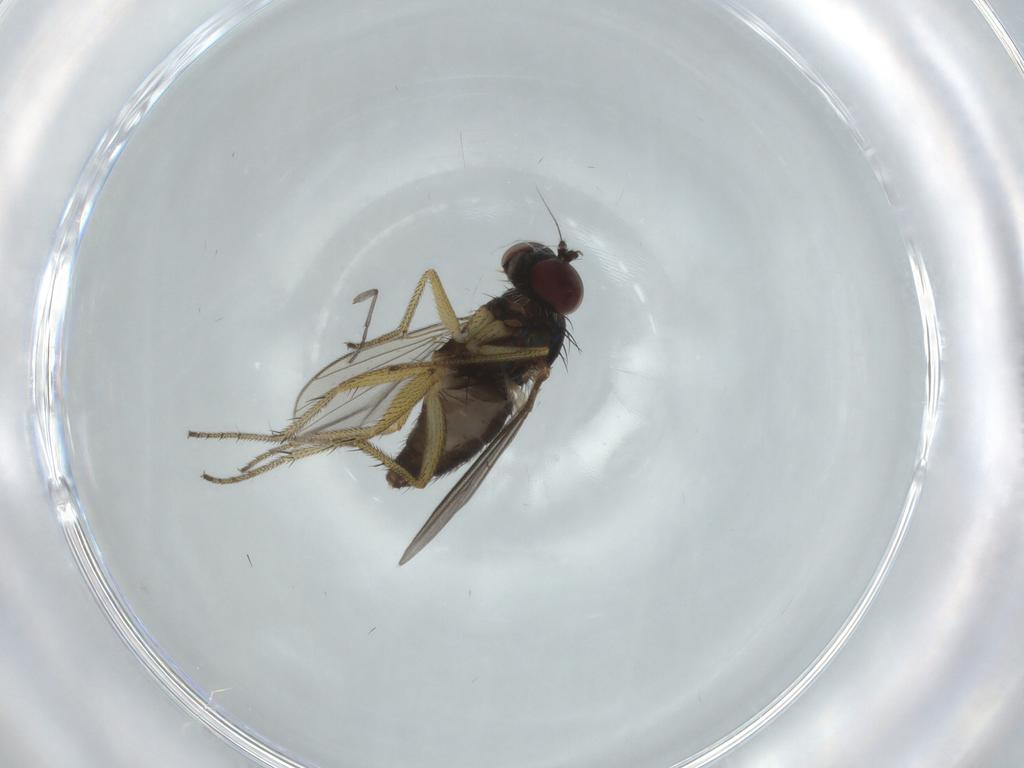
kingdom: Animalia
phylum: Arthropoda
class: Insecta
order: Diptera
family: Sciaridae
